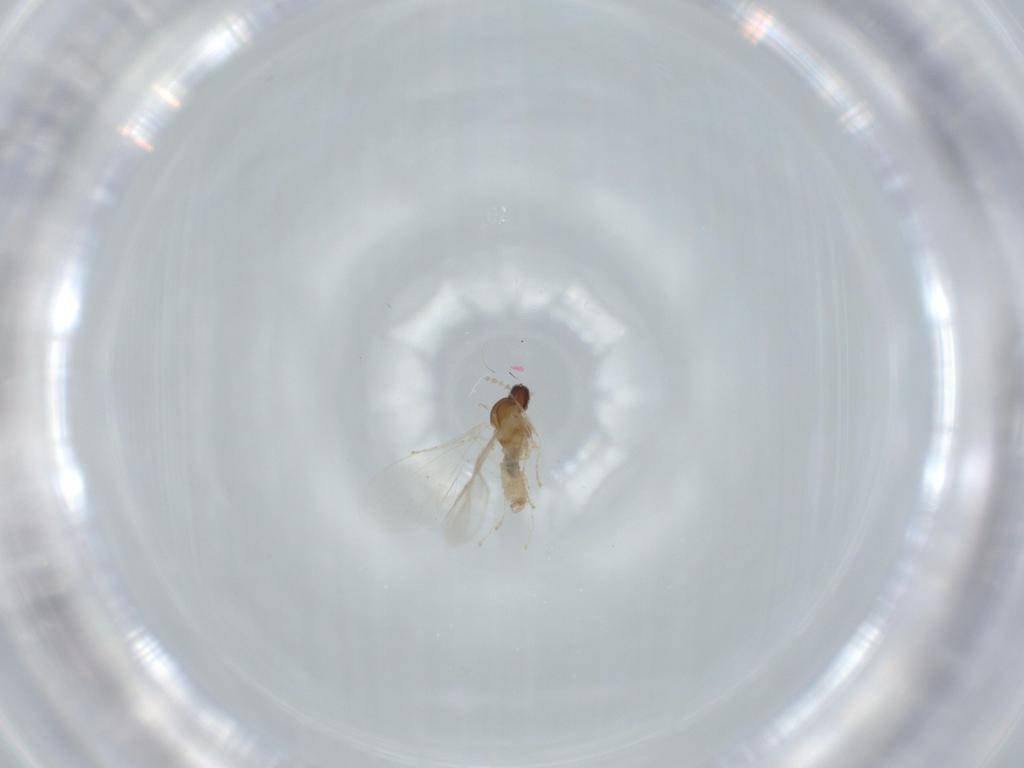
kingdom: Animalia
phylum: Arthropoda
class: Insecta
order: Diptera
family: Cecidomyiidae
